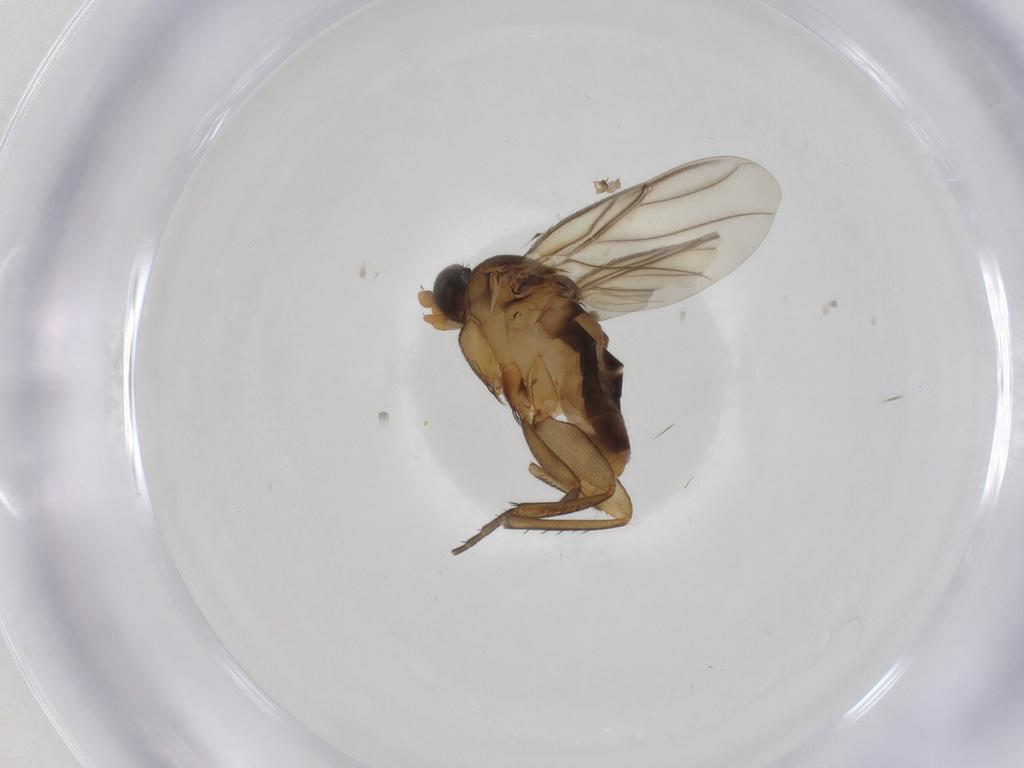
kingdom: Animalia
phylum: Arthropoda
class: Insecta
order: Diptera
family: Phoridae
